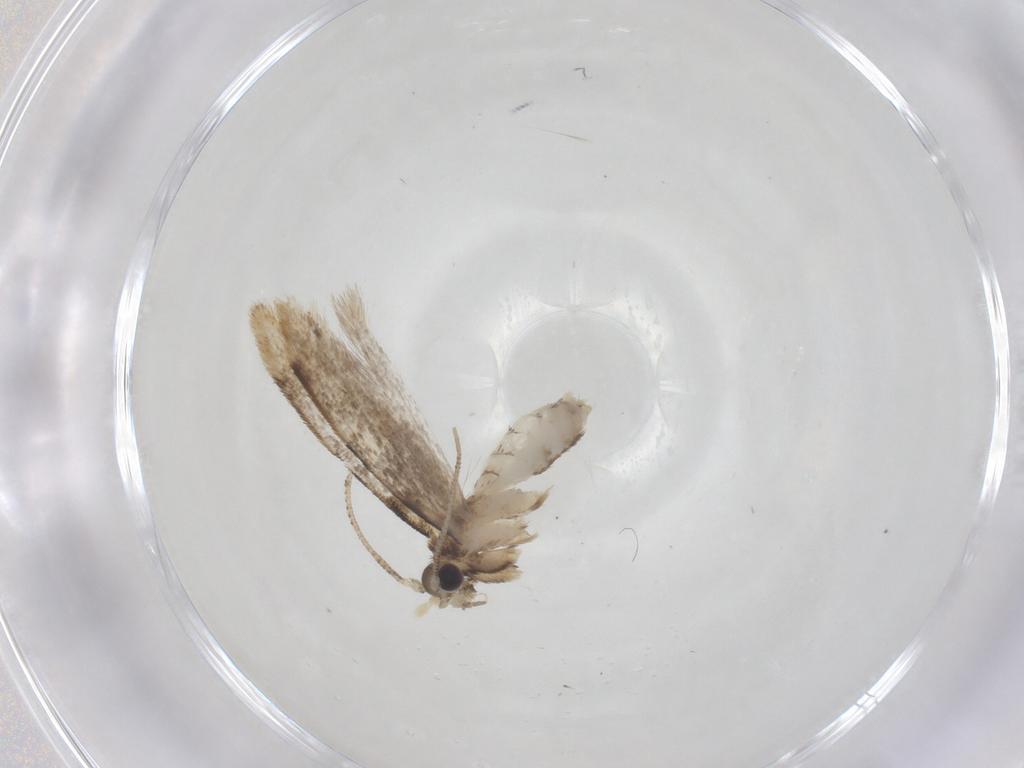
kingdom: Animalia
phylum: Arthropoda
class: Insecta
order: Lepidoptera
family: Dryadaulidae
